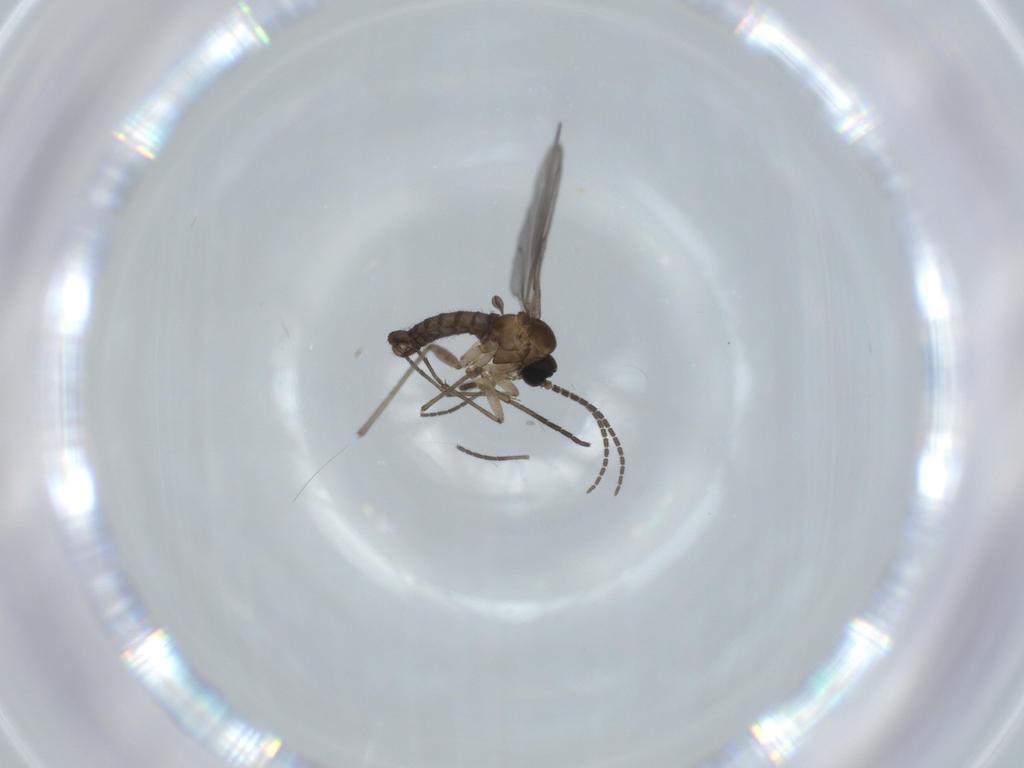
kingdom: Animalia
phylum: Arthropoda
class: Insecta
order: Diptera
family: Sciaridae
